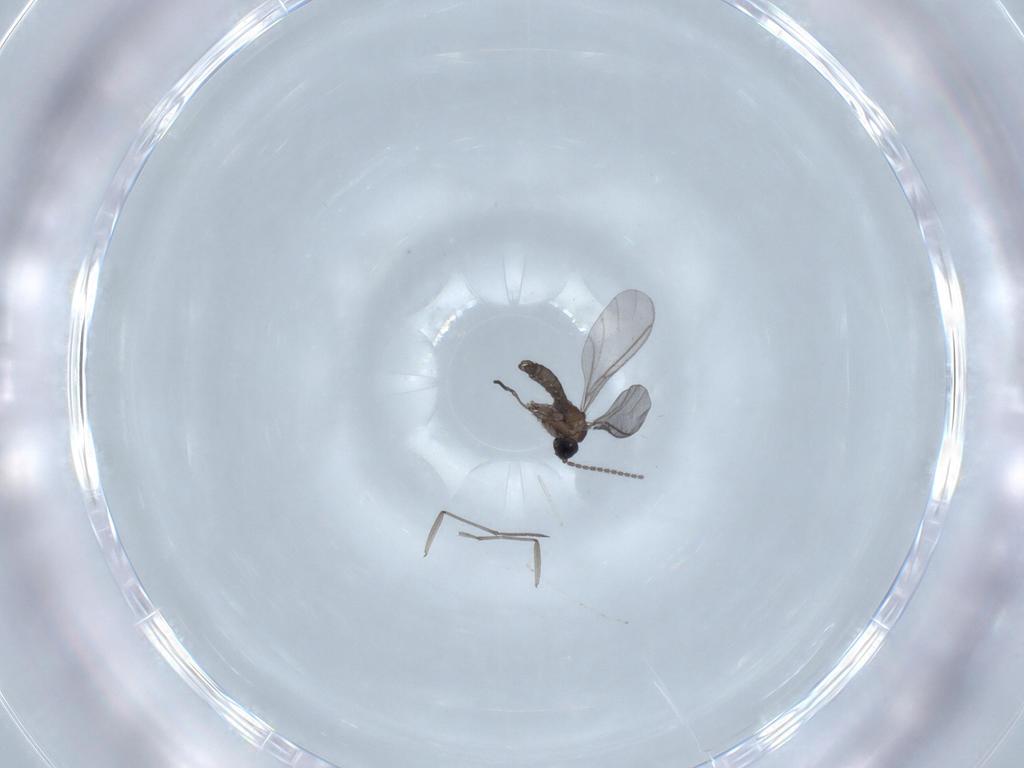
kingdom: Animalia
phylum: Arthropoda
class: Insecta
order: Diptera
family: Sciaridae
